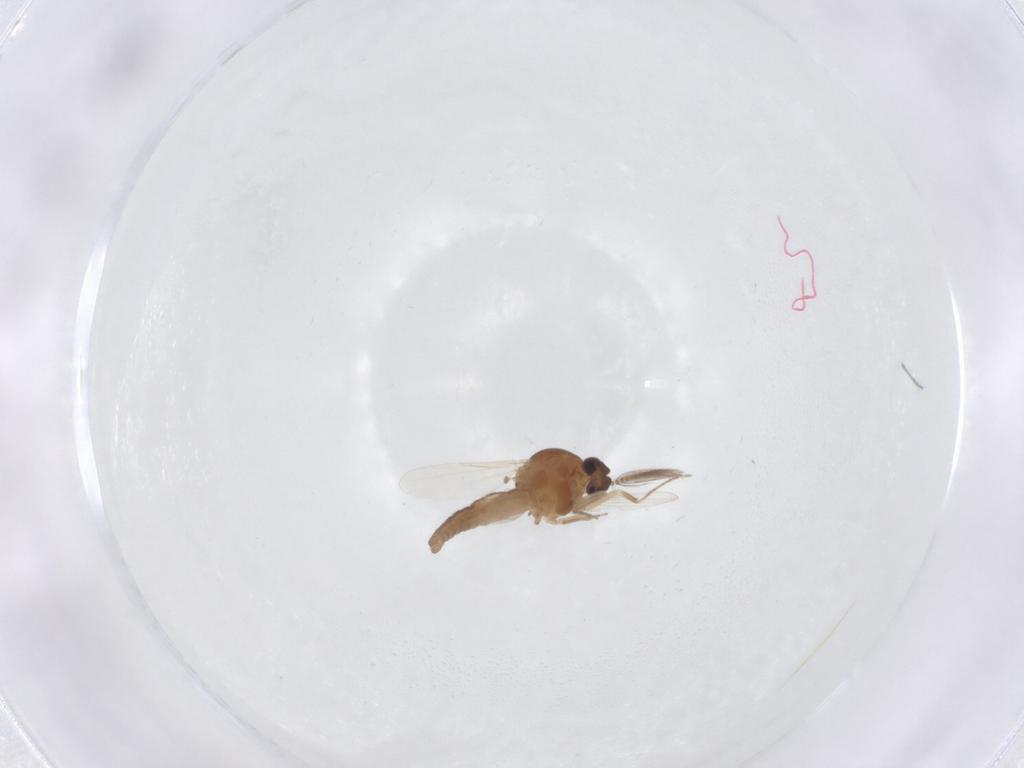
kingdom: Animalia
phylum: Arthropoda
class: Insecta
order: Diptera
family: Ceratopogonidae
